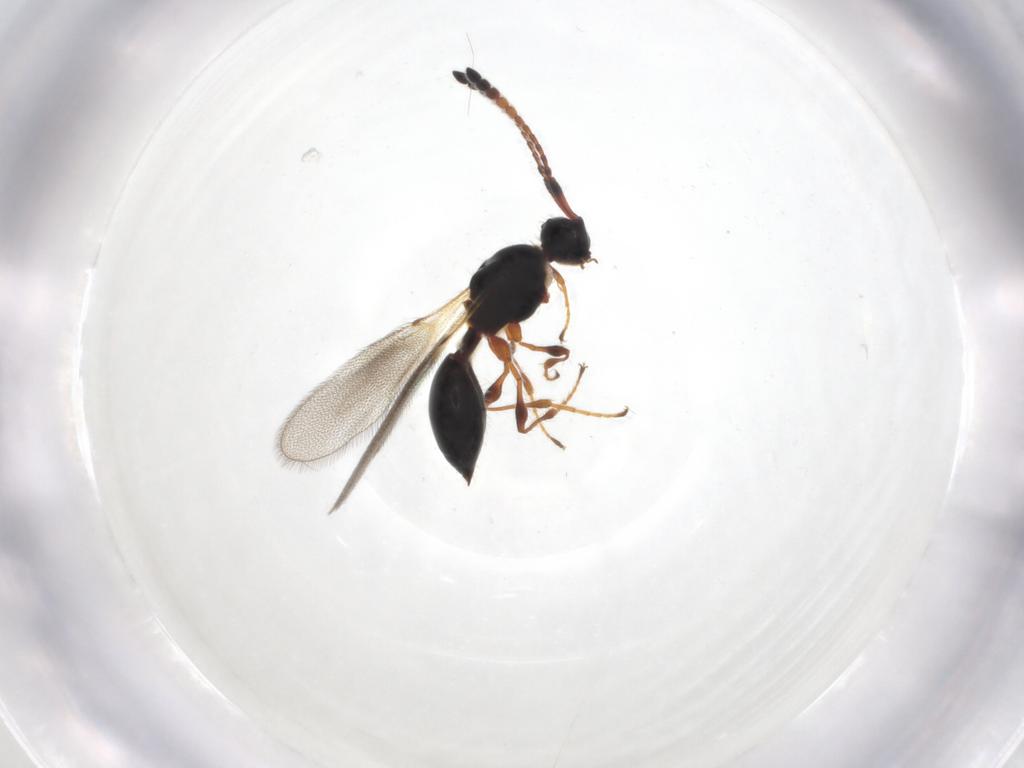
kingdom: Animalia
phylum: Arthropoda
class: Insecta
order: Hymenoptera
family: Diapriidae
